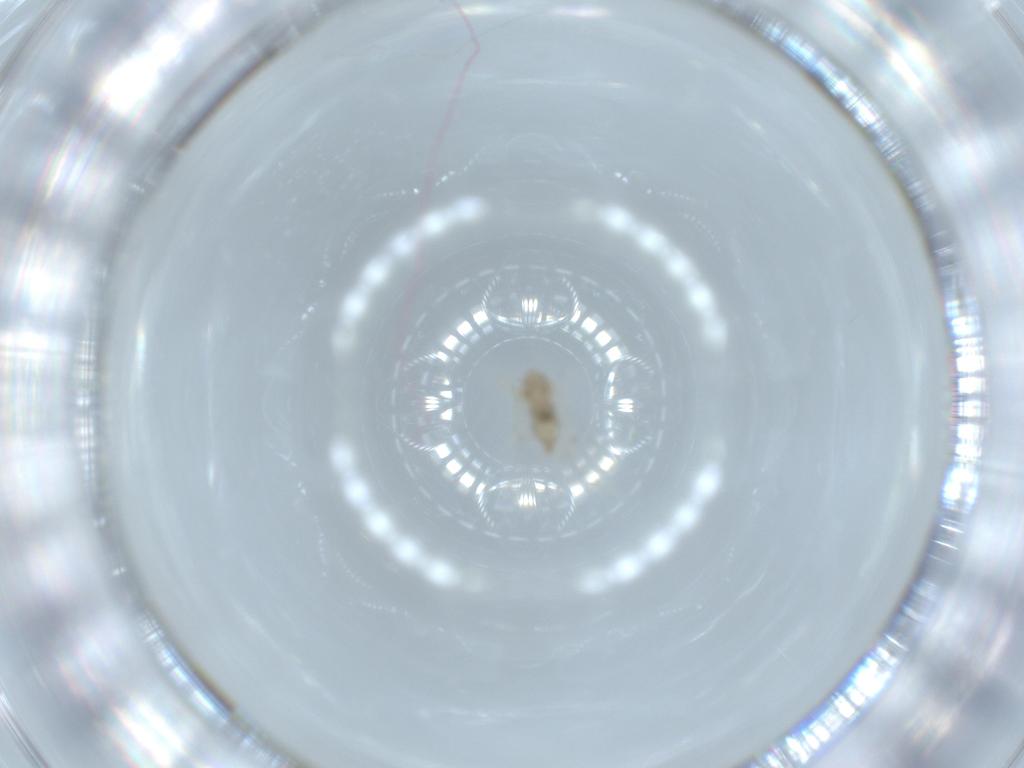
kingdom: Animalia
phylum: Arthropoda
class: Insecta
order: Diptera
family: Cecidomyiidae
